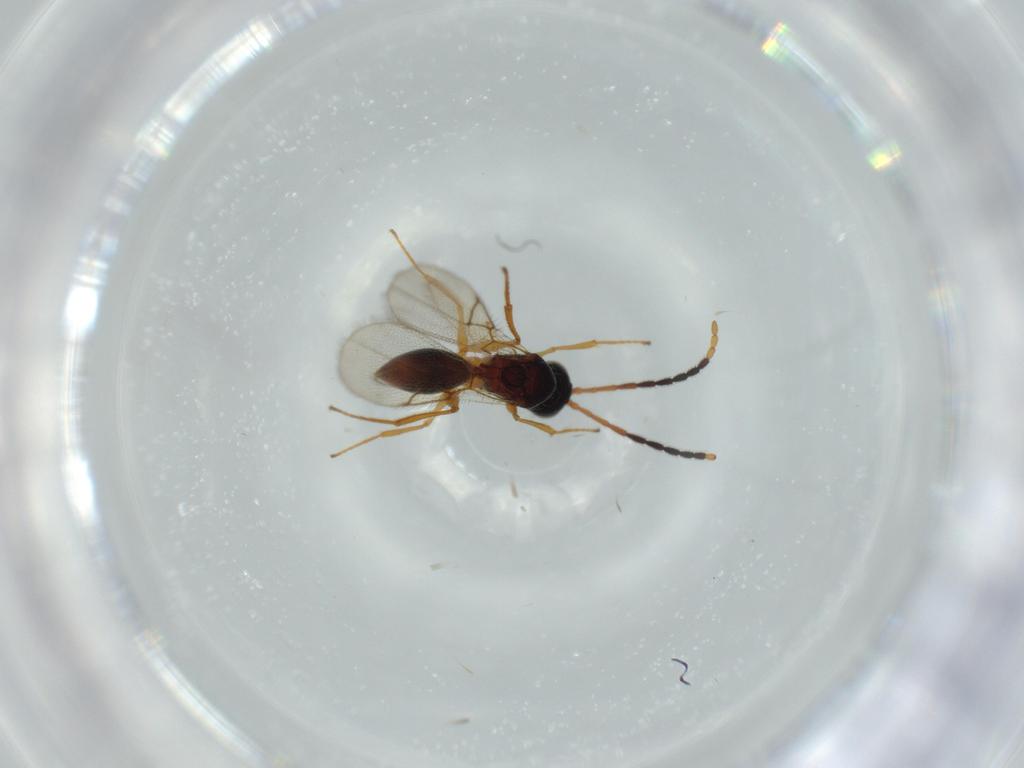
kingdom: Animalia
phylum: Arthropoda
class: Insecta
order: Hymenoptera
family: Figitidae
